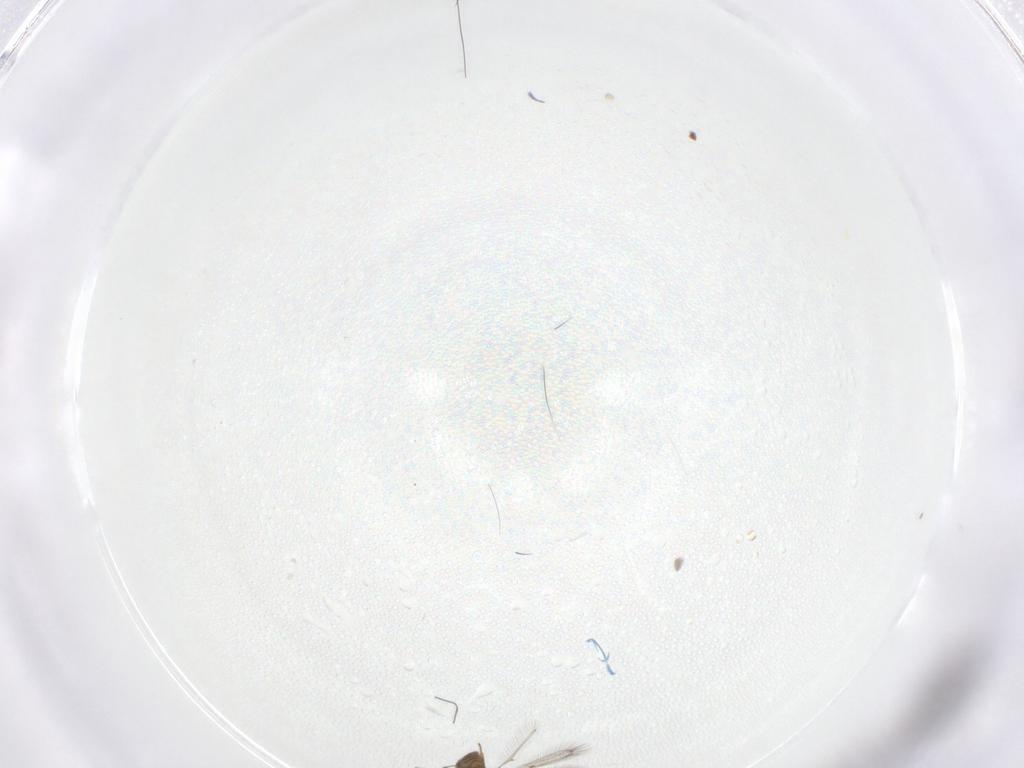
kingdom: Animalia
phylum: Arthropoda
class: Insecta
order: Hymenoptera
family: Trichogrammatidae
